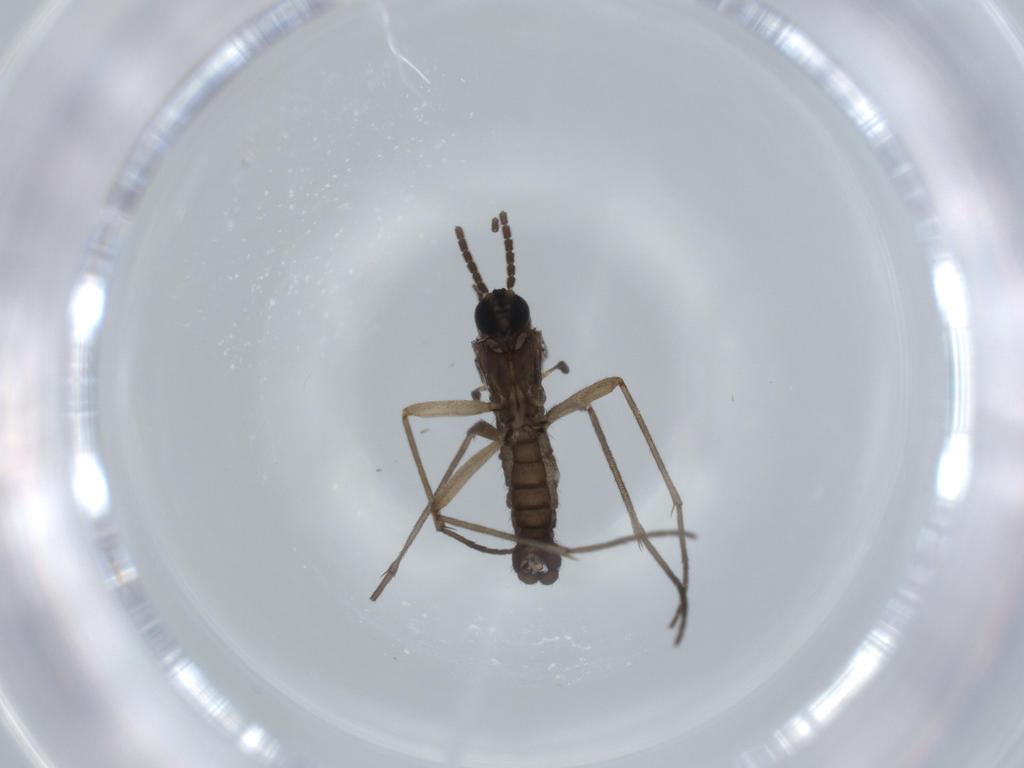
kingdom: Animalia
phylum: Arthropoda
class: Insecta
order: Diptera
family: Sciaridae
